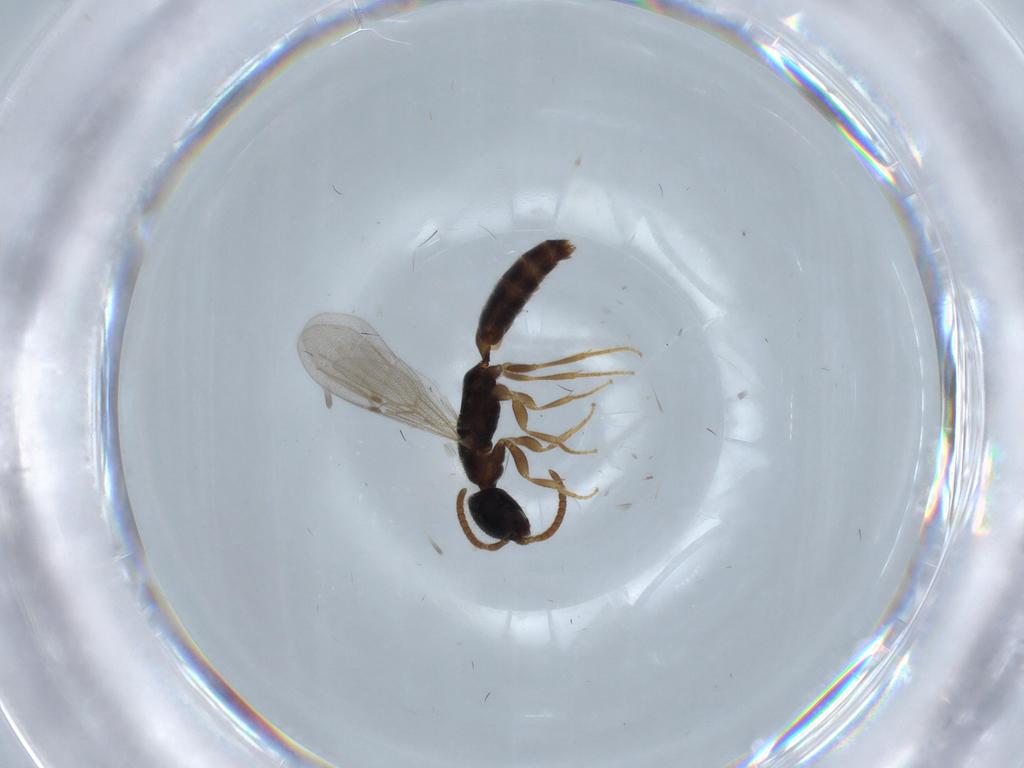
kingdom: Animalia
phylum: Arthropoda
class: Insecta
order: Hymenoptera
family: Bethylidae
